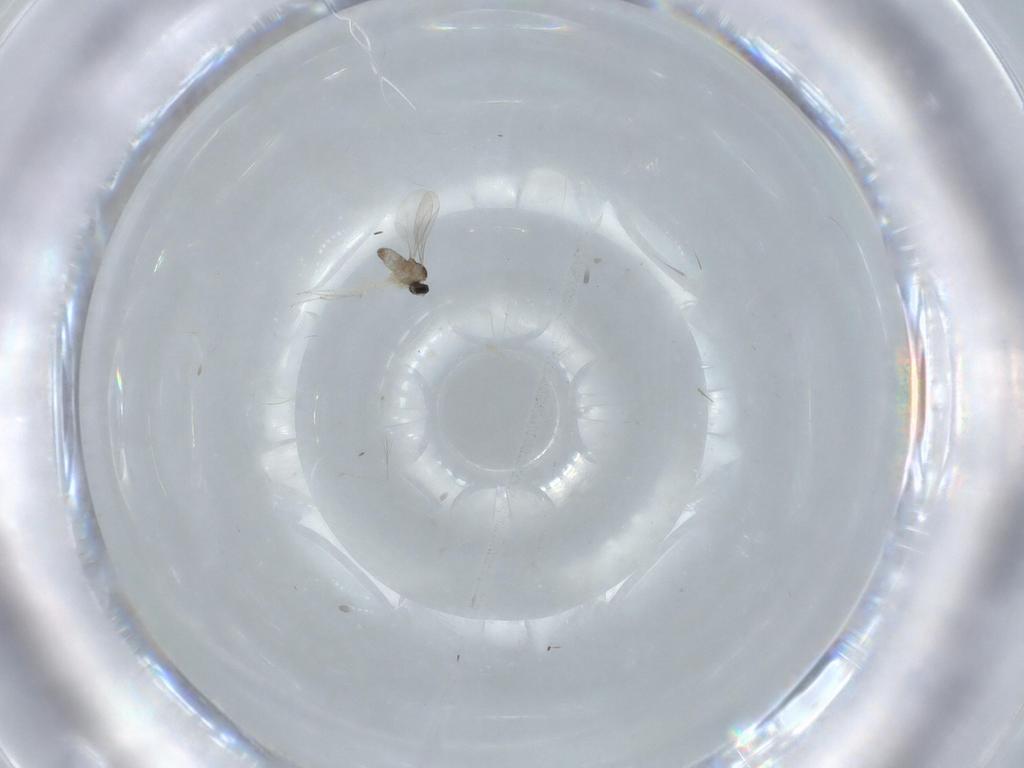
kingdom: Animalia
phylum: Arthropoda
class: Insecta
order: Diptera
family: Cecidomyiidae
